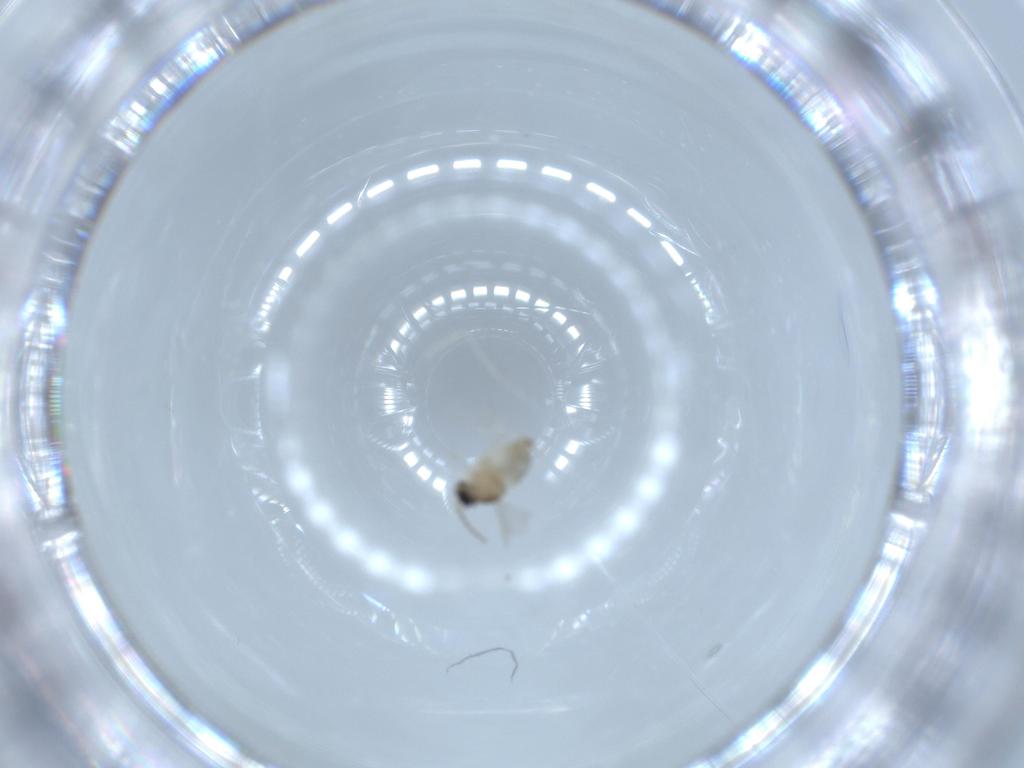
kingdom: Animalia
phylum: Arthropoda
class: Insecta
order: Diptera
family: Cecidomyiidae
